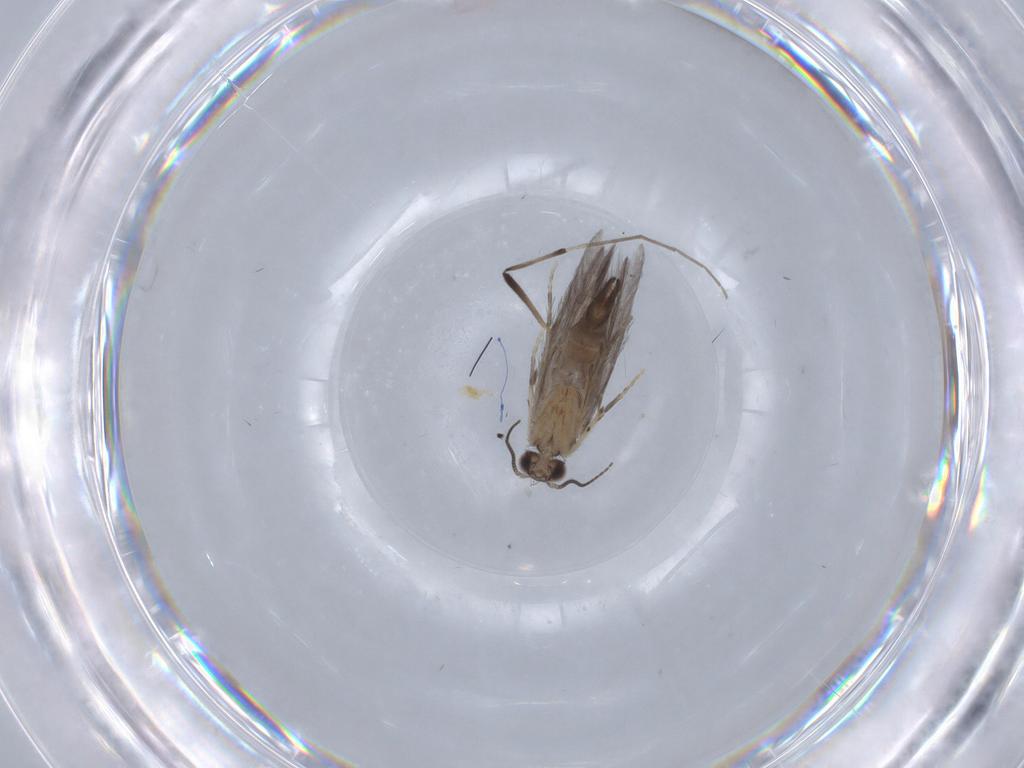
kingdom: Animalia
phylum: Arthropoda
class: Insecta
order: Trichoptera
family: Hydroptilidae
